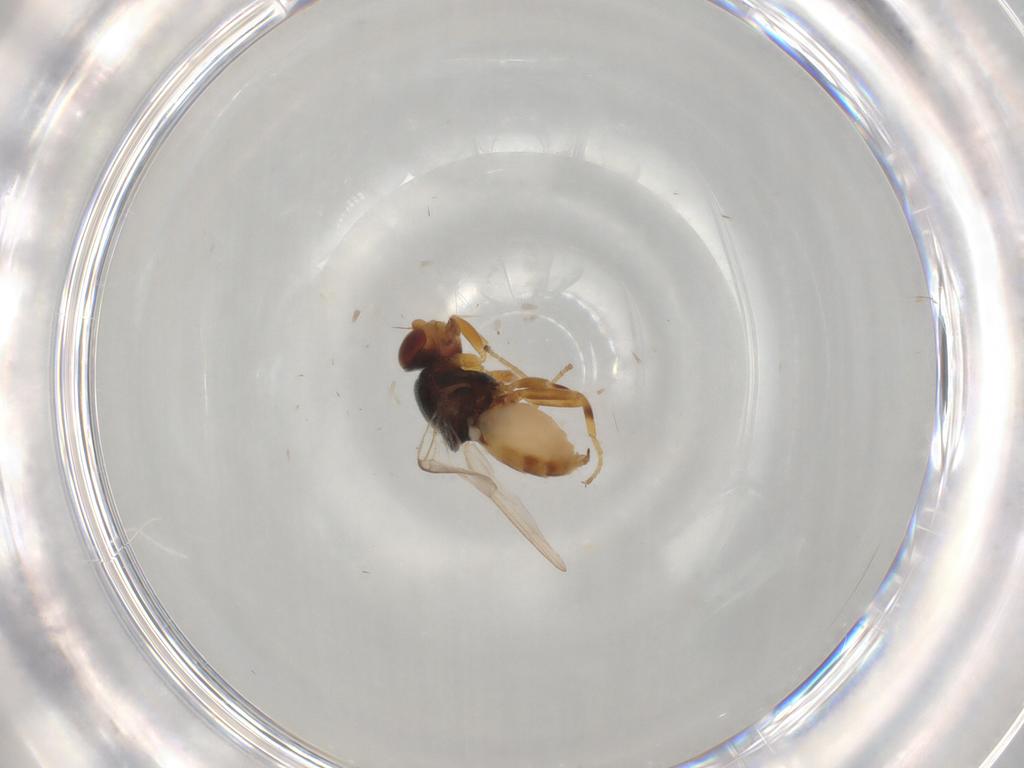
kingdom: Animalia
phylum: Arthropoda
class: Insecta
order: Diptera
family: Chloropidae
